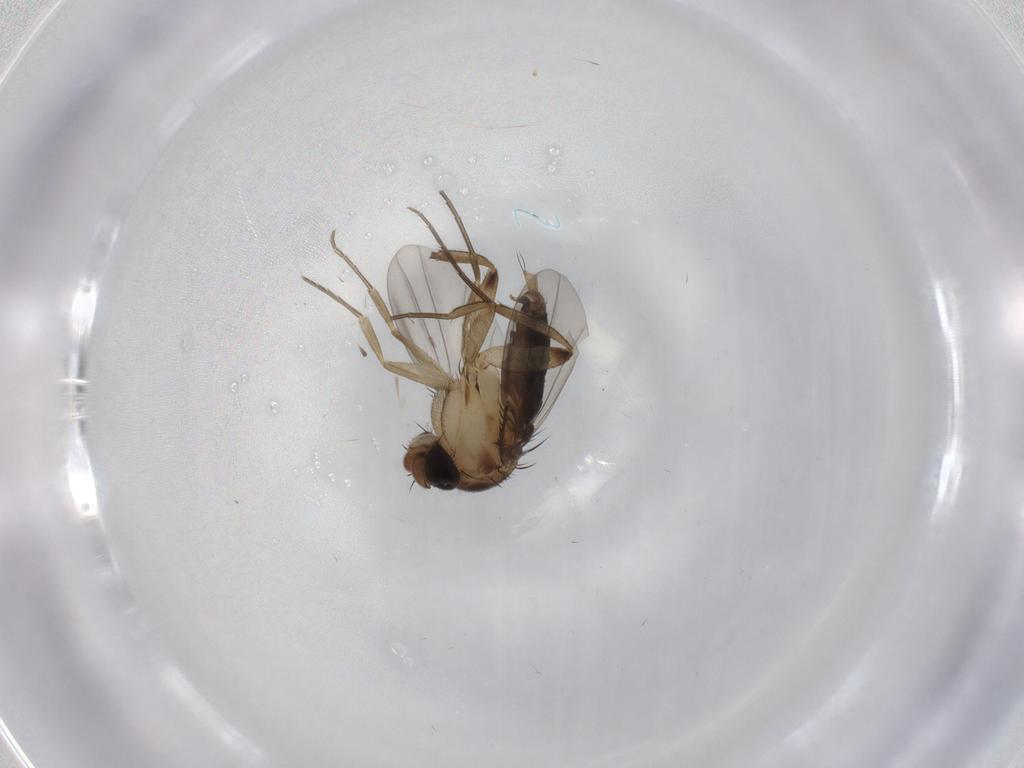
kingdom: Animalia
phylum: Arthropoda
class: Insecta
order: Diptera
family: Phoridae
